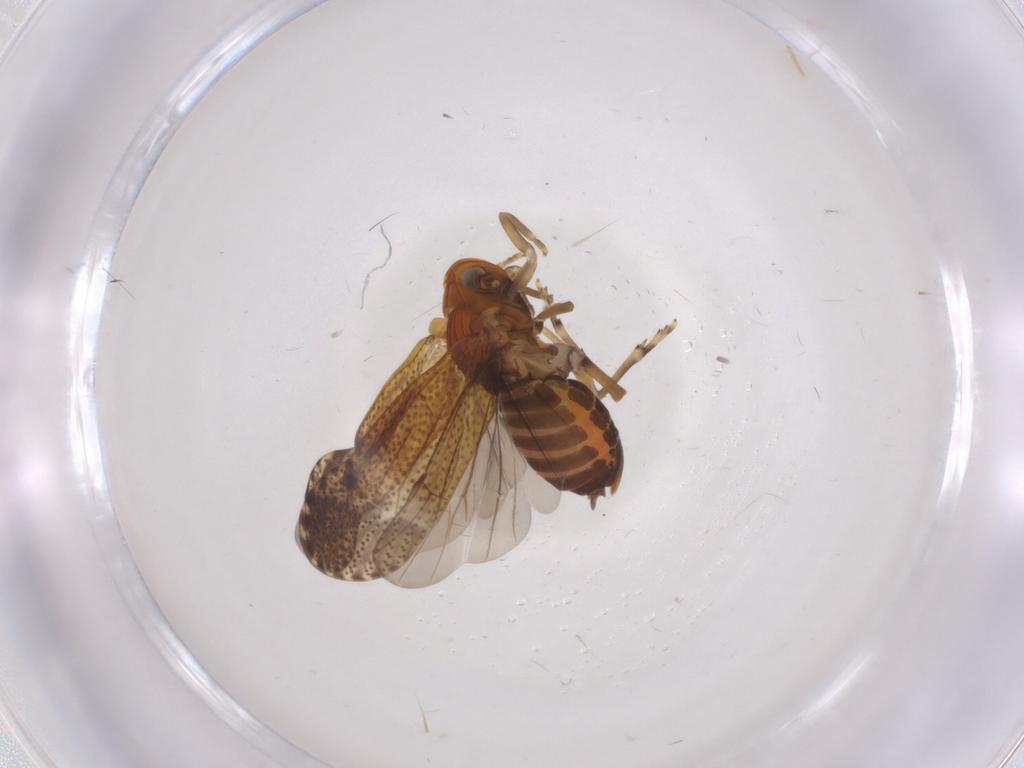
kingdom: Animalia
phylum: Arthropoda
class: Insecta
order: Hemiptera
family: Delphacidae
